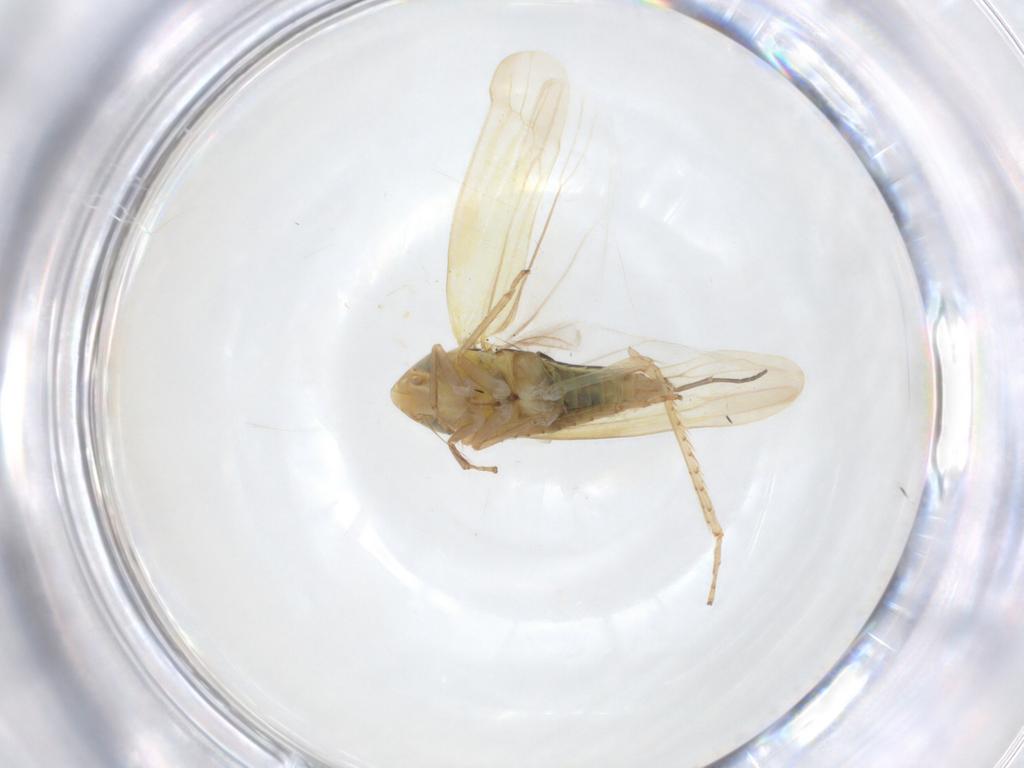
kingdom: Animalia
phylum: Arthropoda
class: Insecta
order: Hemiptera
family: Cicadellidae
